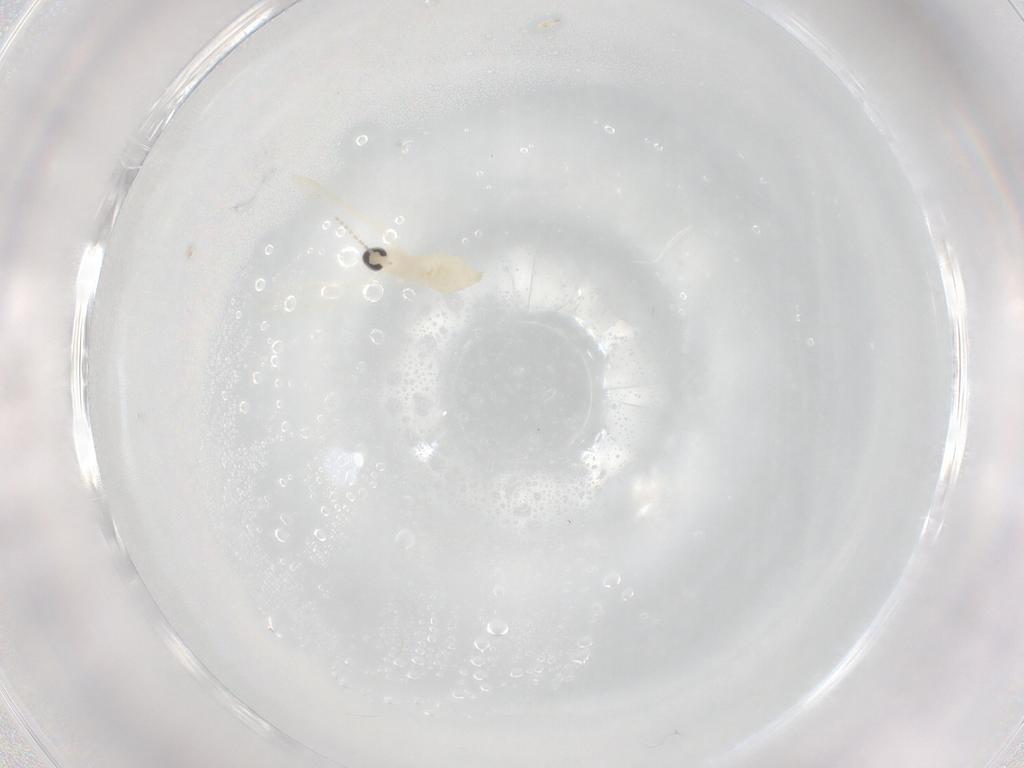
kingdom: Animalia
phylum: Arthropoda
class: Insecta
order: Diptera
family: Cecidomyiidae
